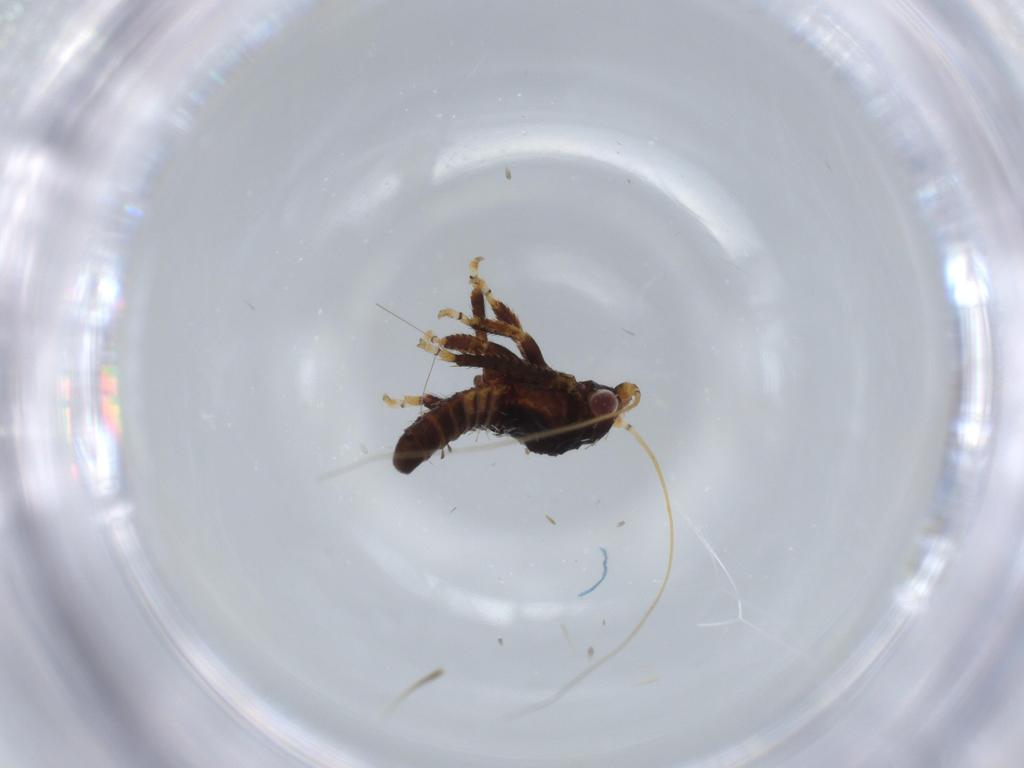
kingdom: Animalia
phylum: Arthropoda
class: Insecta
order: Hemiptera
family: Cicadellidae
